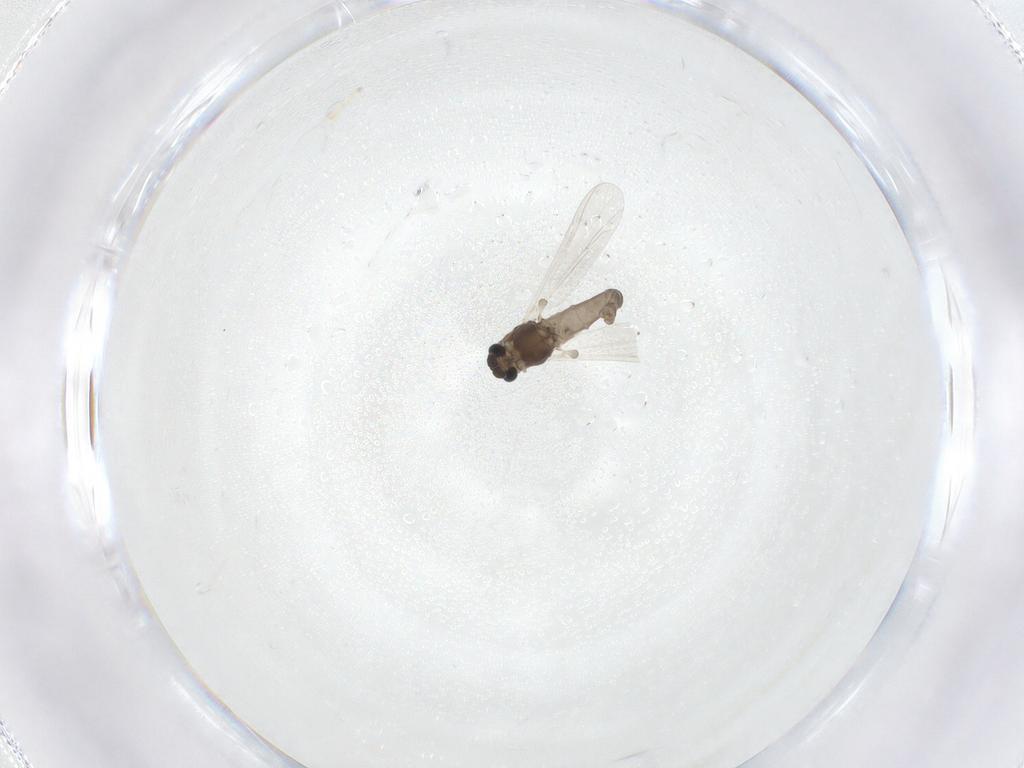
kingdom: Animalia
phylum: Arthropoda
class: Insecta
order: Diptera
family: Chironomidae
